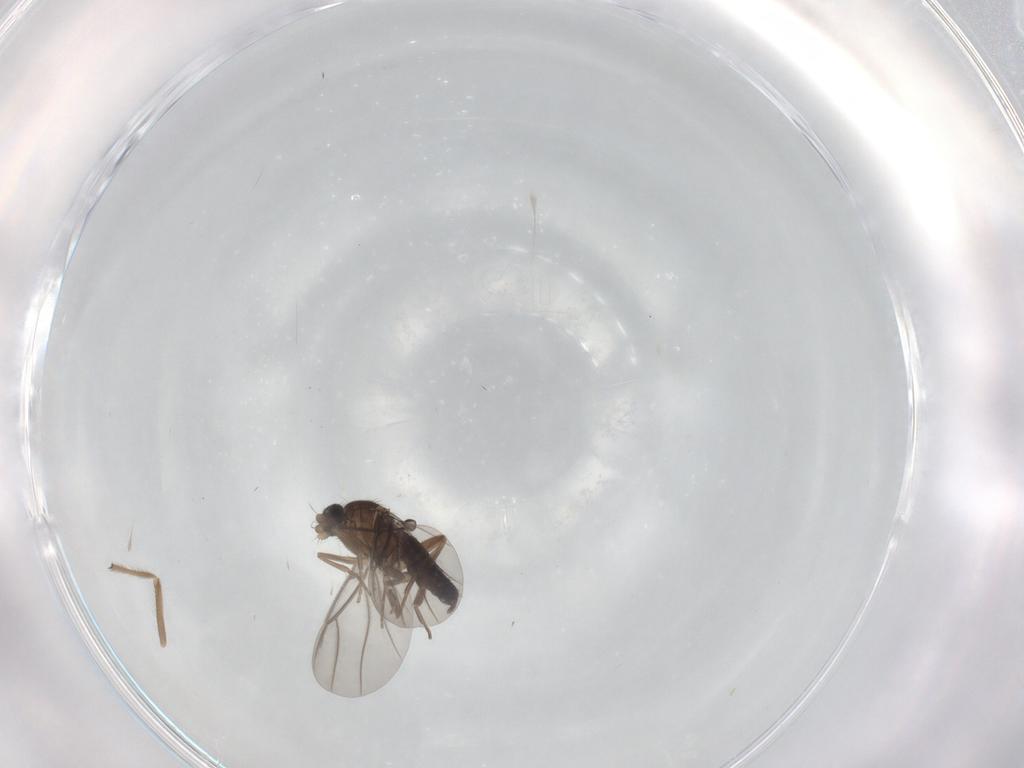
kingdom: Animalia
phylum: Arthropoda
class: Insecta
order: Diptera
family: Chironomidae
